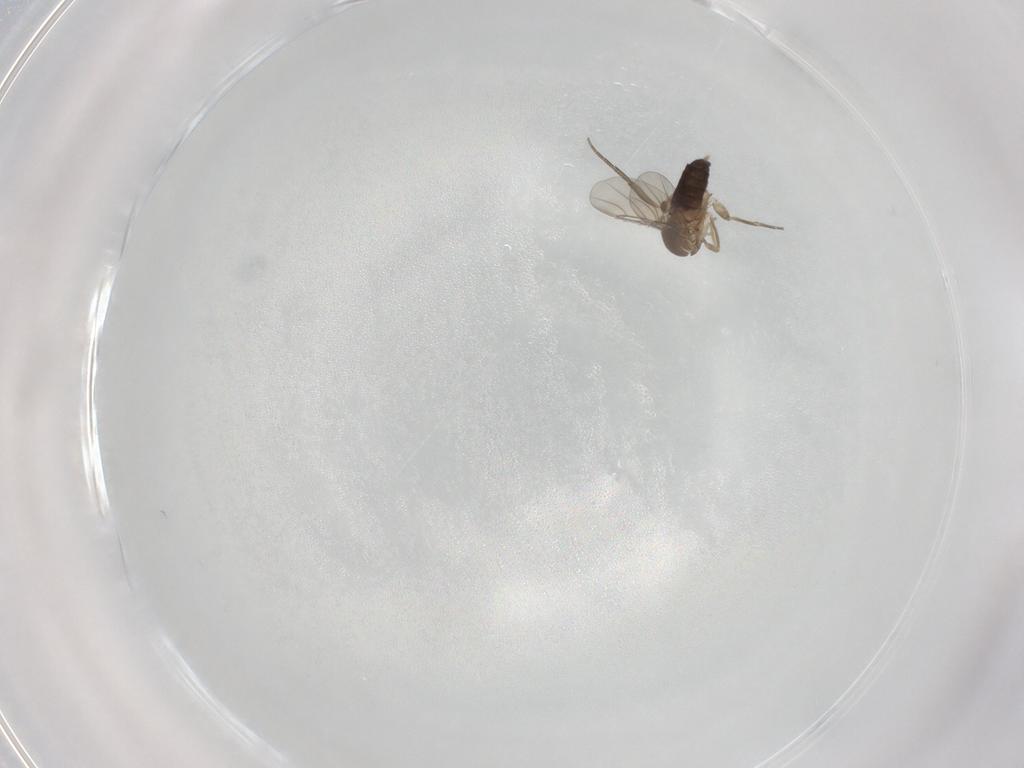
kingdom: Animalia
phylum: Arthropoda
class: Insecta
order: Diptera
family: Phoridae
